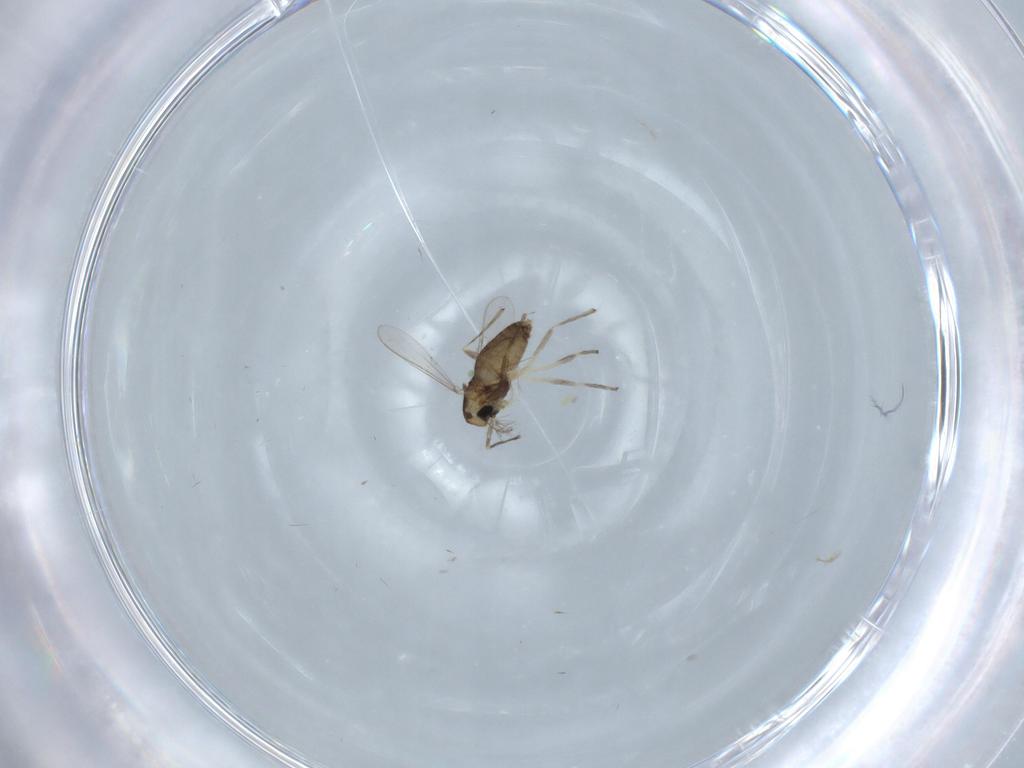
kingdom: Animalia
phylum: Arthropoda
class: Insecta
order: Diptera
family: Chironomidae
